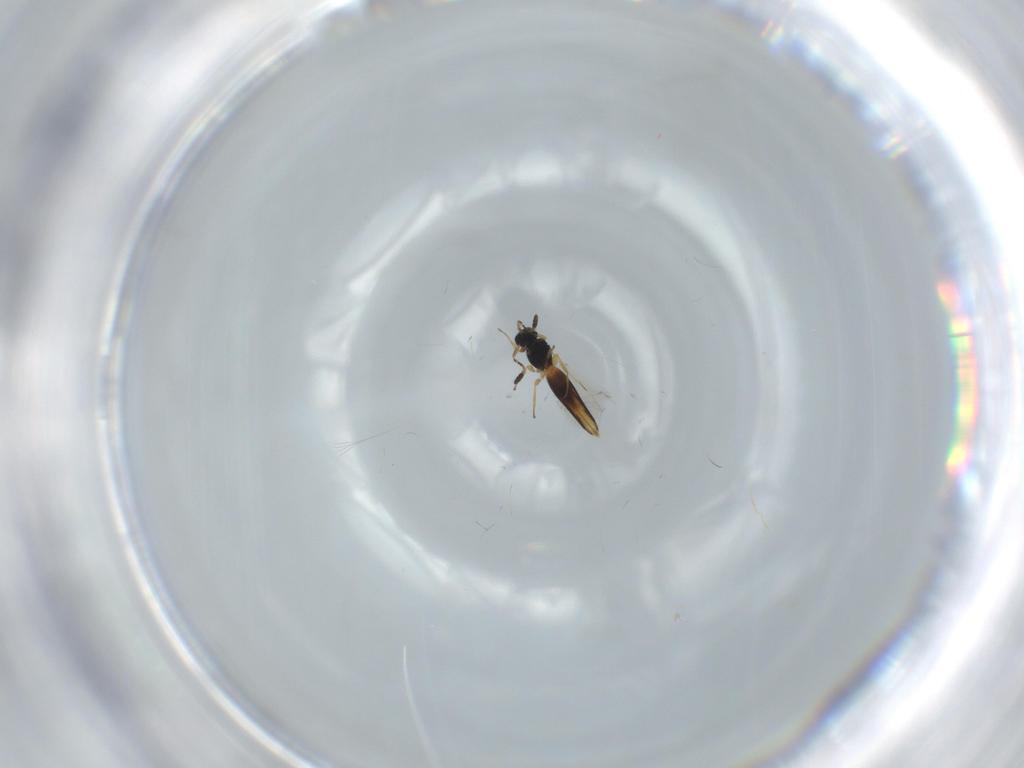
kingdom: Animalia
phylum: Arthropoda
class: Insecta
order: Hymenoptera
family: Scelionidae
